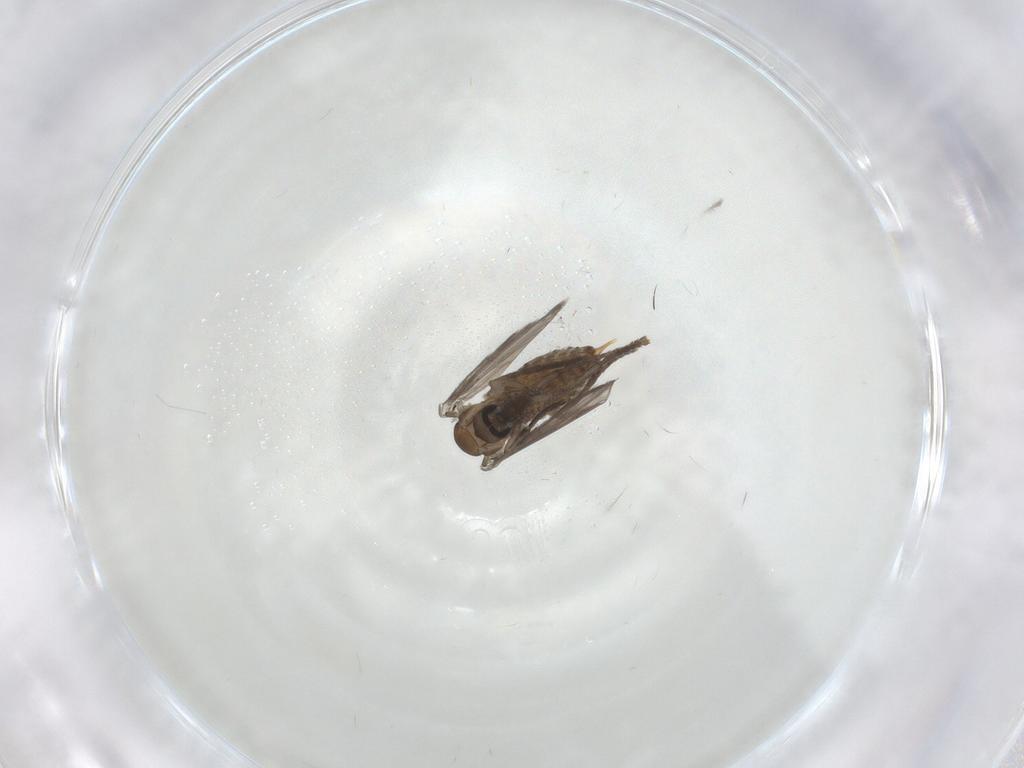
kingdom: Animalia
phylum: Arthropoda
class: Insecta
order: Diptera
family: Sciaridae
